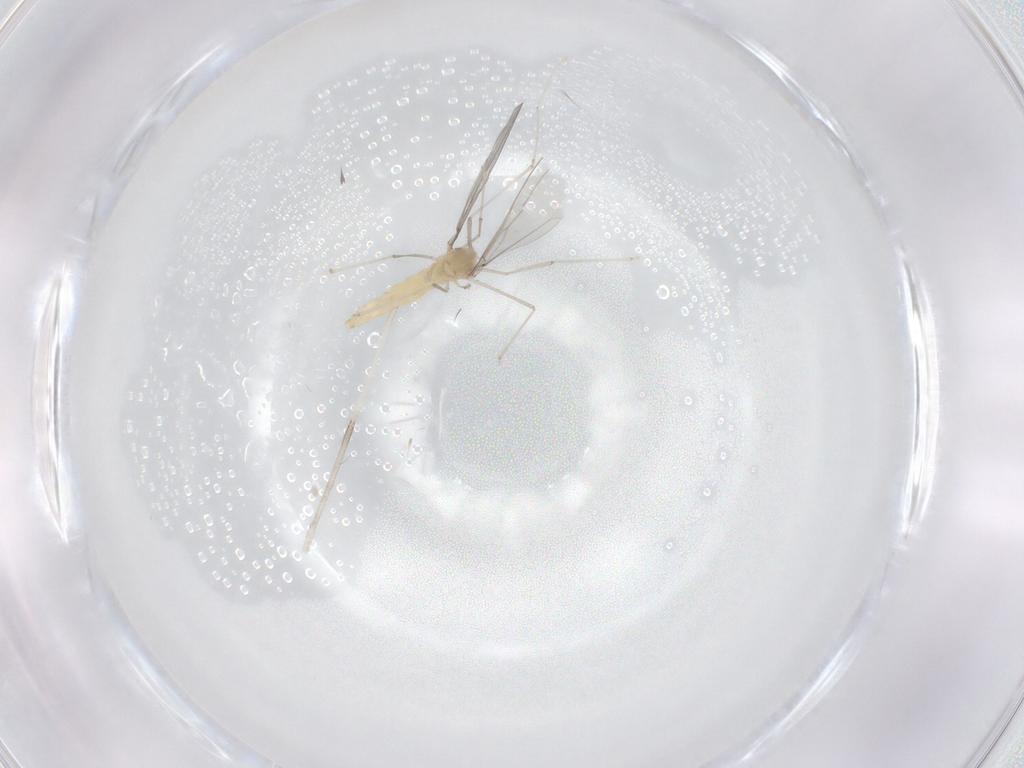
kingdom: Animalia
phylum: Arthropoda
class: Insecta
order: Diptera
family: Cecidomyiidae
